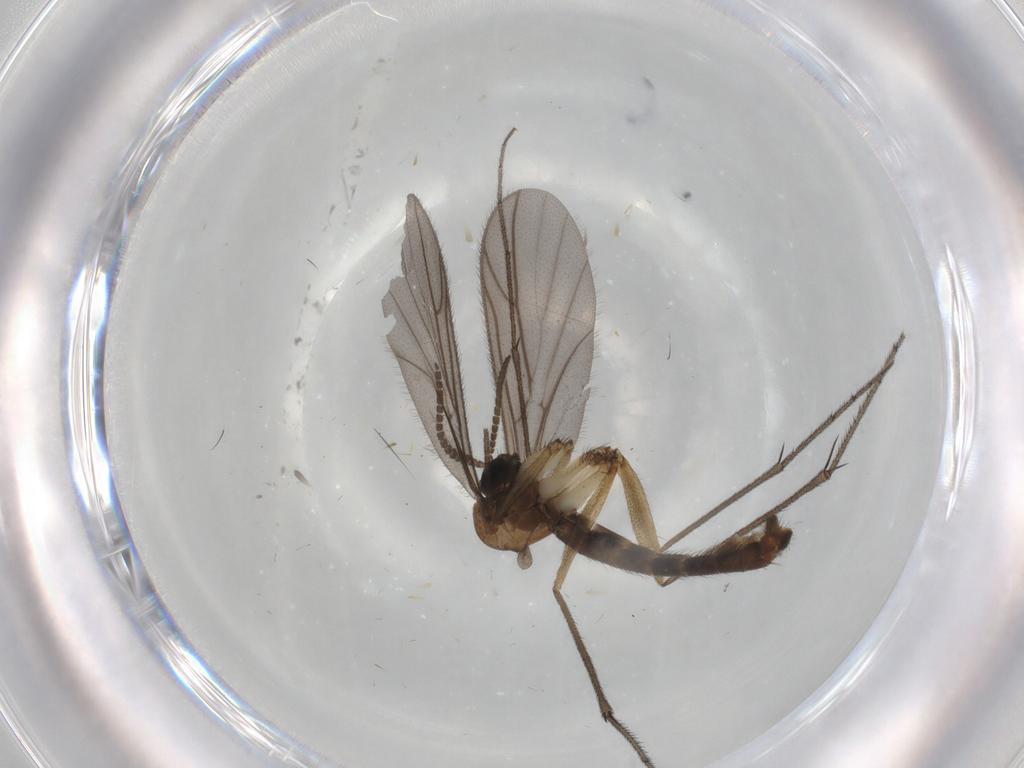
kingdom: Animalia
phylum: Arthropoda
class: Insecta
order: Diptera
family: Ditomyiidae
